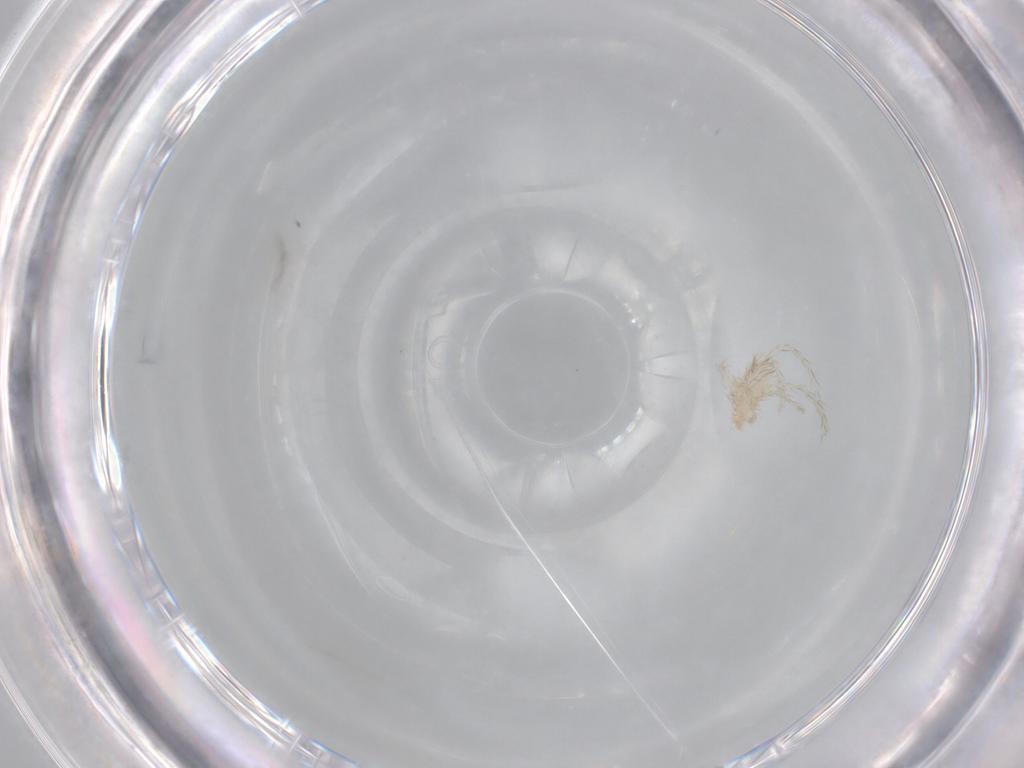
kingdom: Animalia
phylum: Arthropoda
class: Arachnida
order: Trombidiformes
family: Erythraeidae
